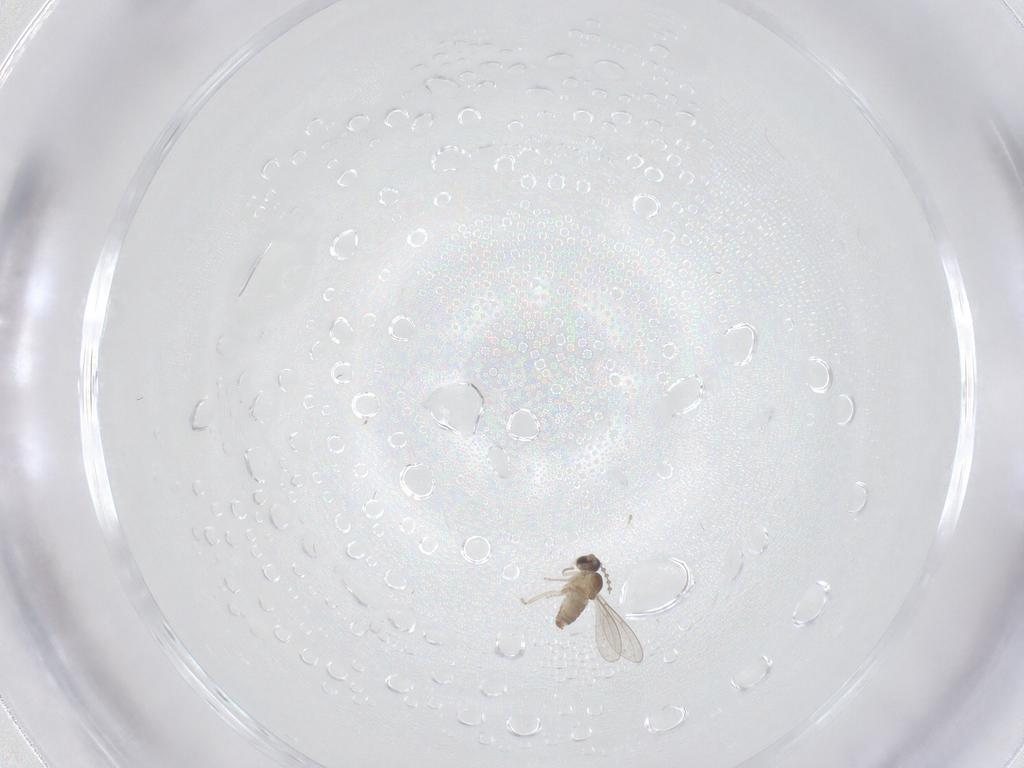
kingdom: Animalia
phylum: Arthropoda
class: Insecta
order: Diptera
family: Cecidomyiidae
